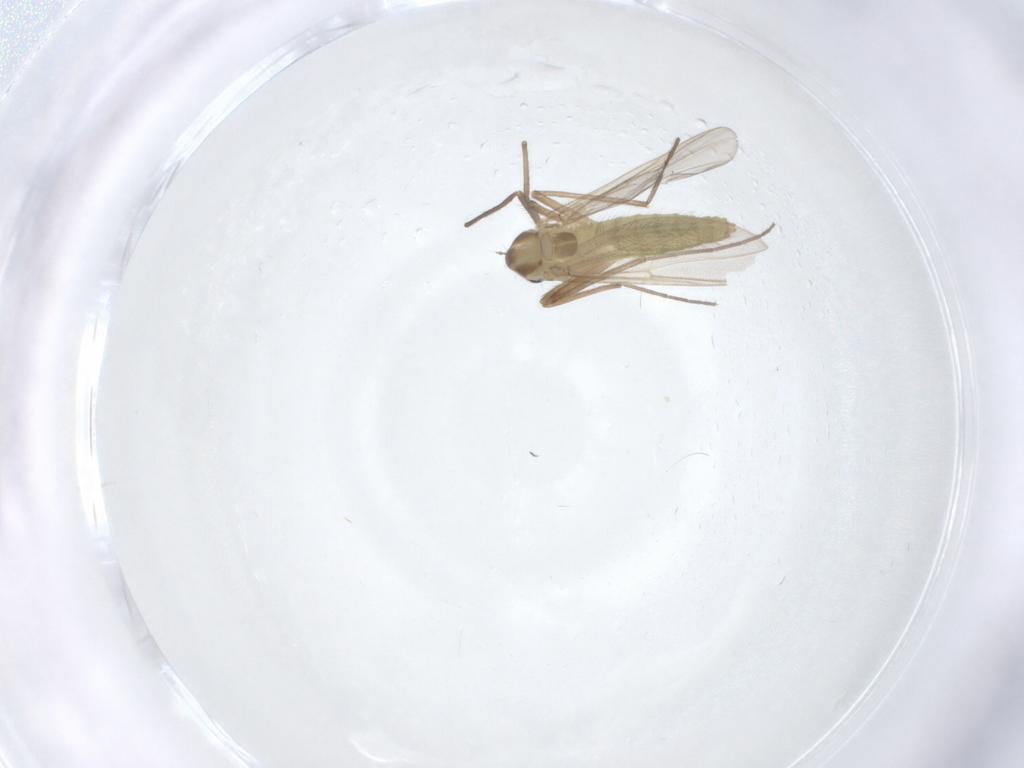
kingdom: Animalia
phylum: Arthropoda
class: Insecta
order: Diptera
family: Chironomidae
